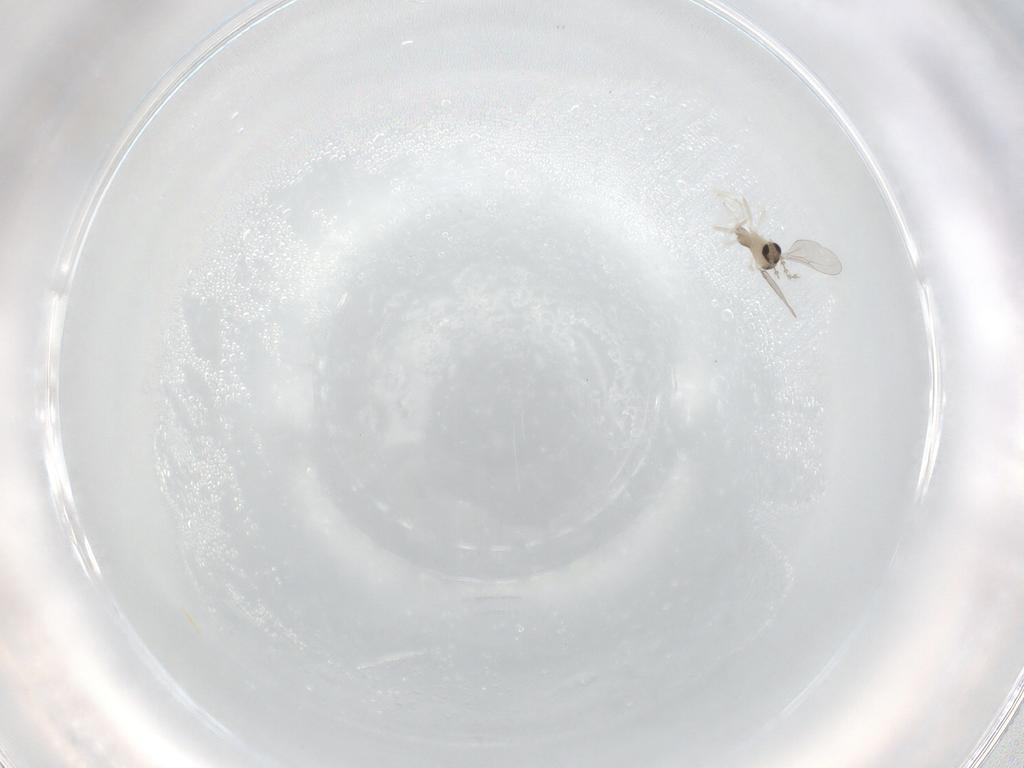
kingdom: Animalia
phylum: Arthropoda
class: Insecta
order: Diptera
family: Cecidomyiidae
